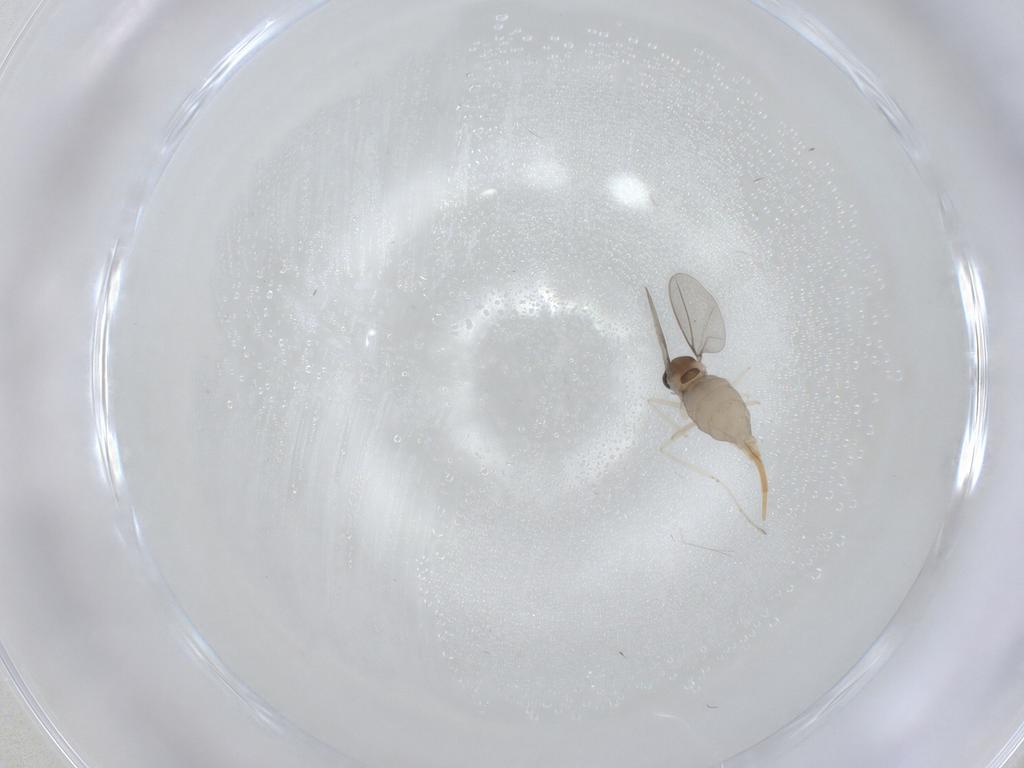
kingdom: Animalia
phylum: Arthropoda
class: Insecta
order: Diptera
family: Cecidomyiidae
